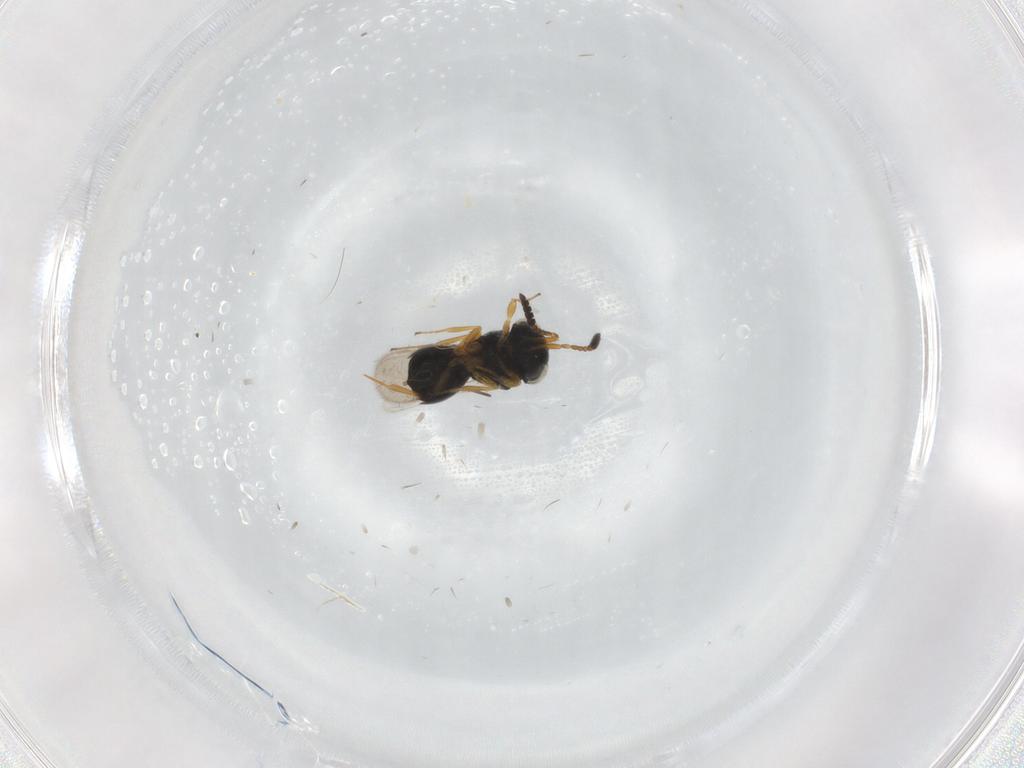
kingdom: Animalia
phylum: Arthropoda
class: Insecta
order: Hymenoptera
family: Scelionidae
